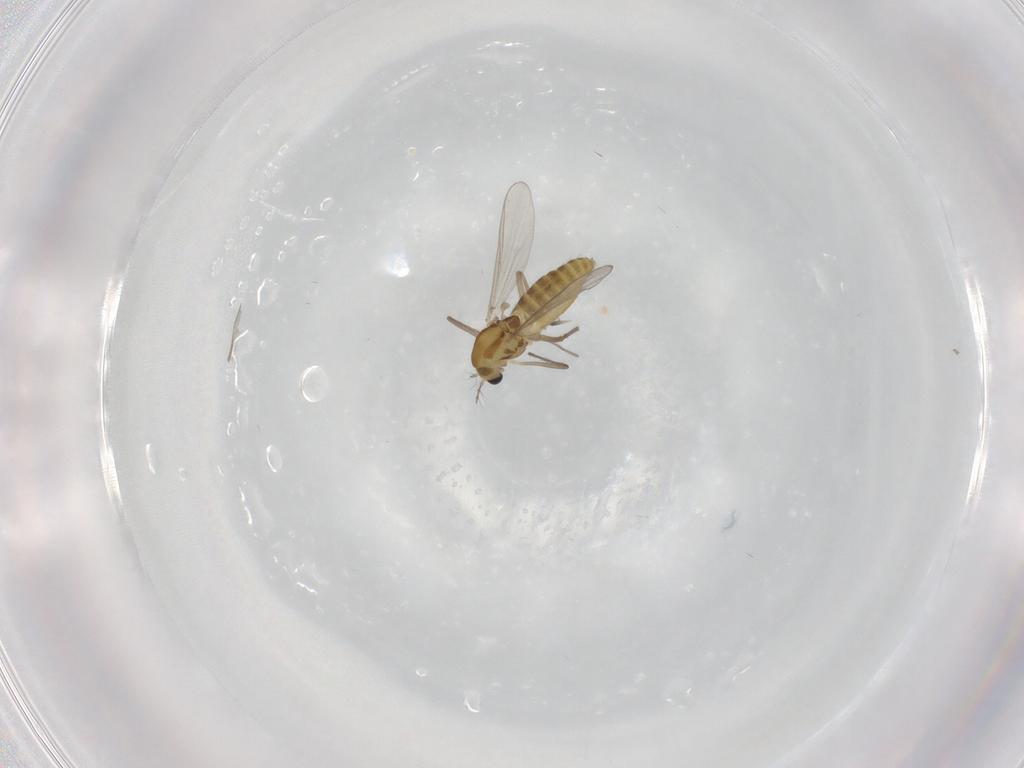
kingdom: Animalia
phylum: Arthropoda
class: Insecta
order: Diptera
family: Chironomidae
